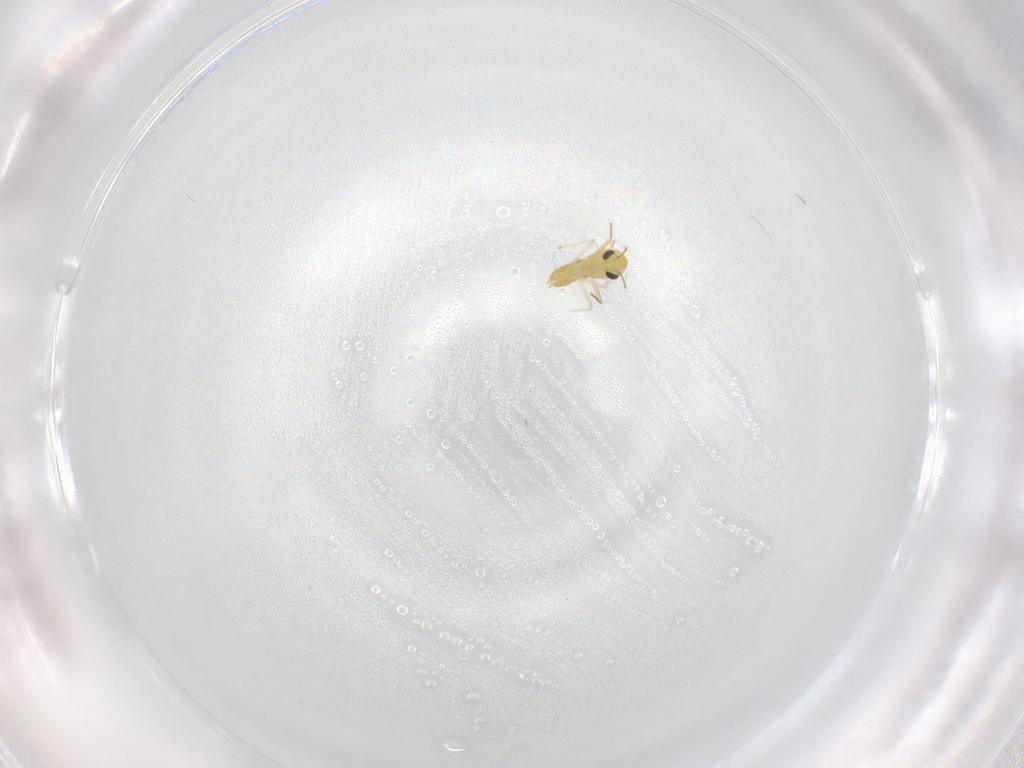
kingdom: Animalia
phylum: Arthropoda
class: Insecta
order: Diptera
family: Chironomidae
